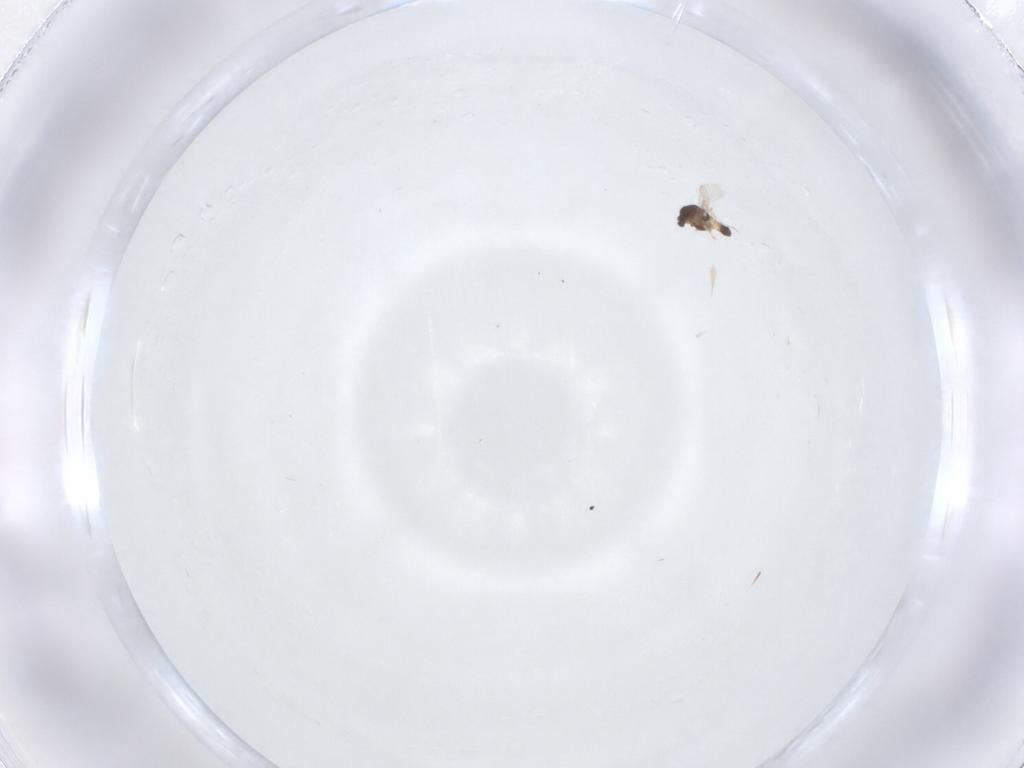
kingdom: Animalia
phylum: Arthropoda
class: Insecta
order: Diptera
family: Chironomidae
